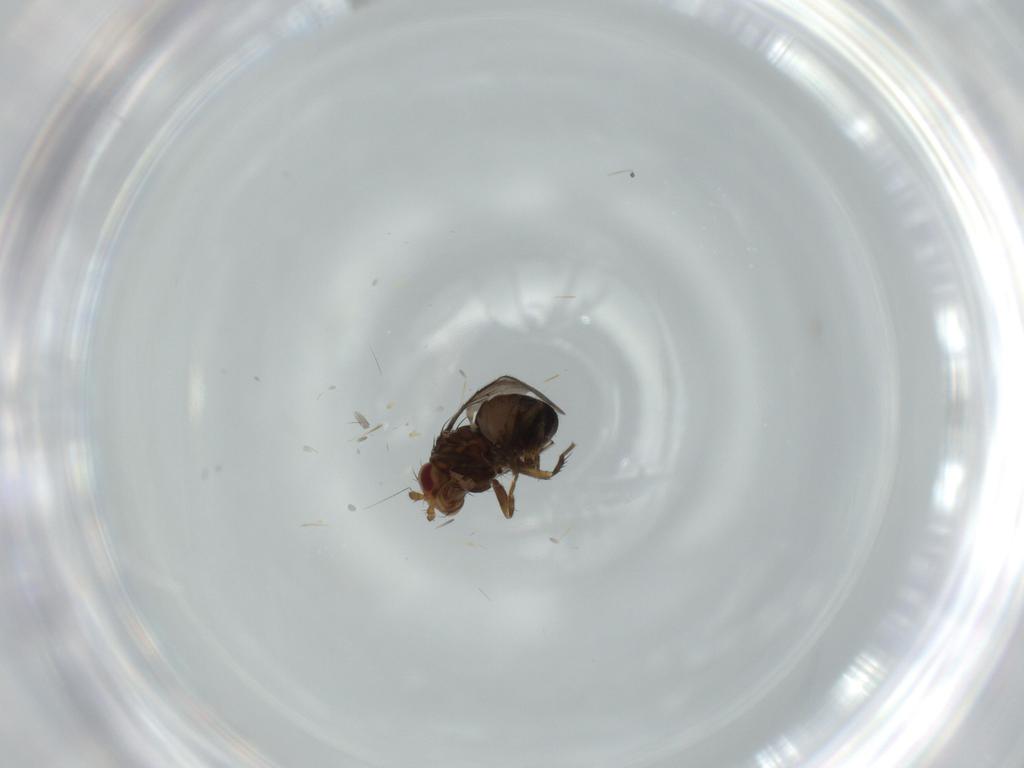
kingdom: Animalia
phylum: Arthropoda
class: Insecta
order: Diptera
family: Sphaeroceridae
